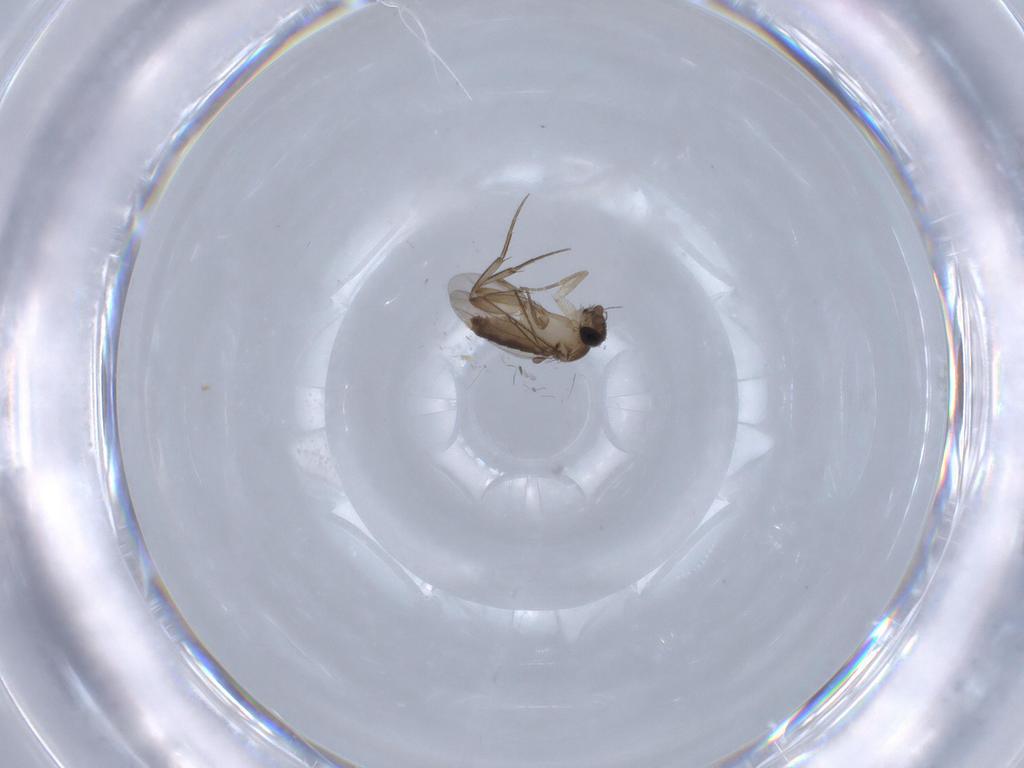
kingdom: Animalia
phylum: Arthropoda
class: Insecta
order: Diptera
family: Phoridae
